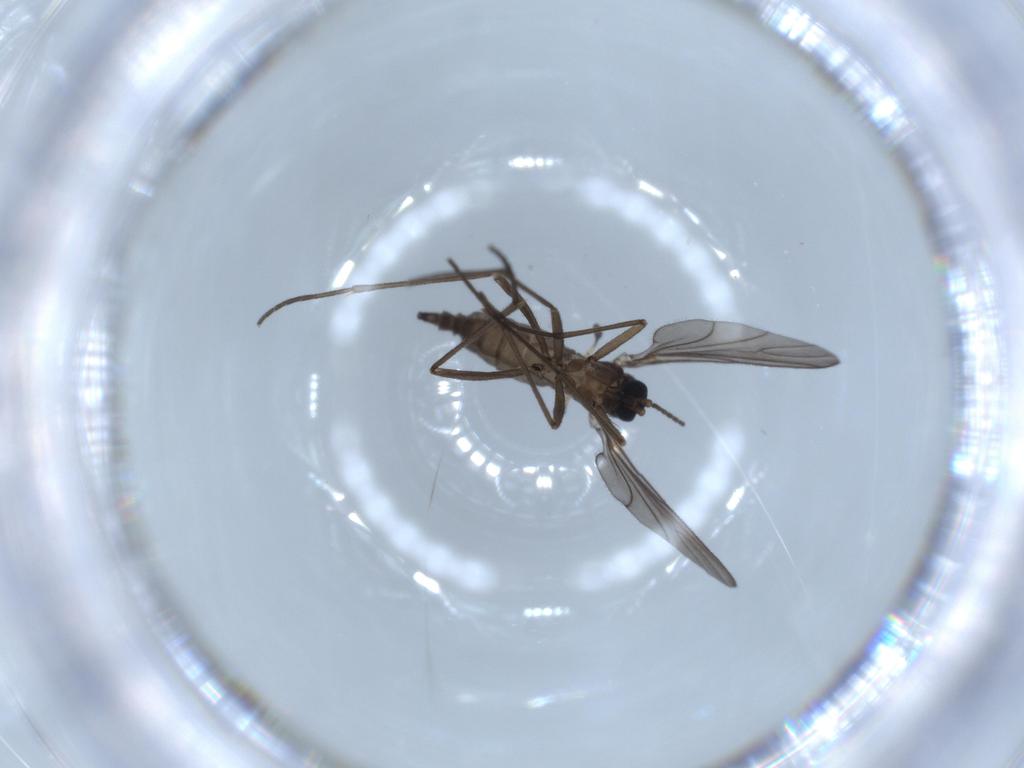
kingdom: Animalia
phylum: Arthropoda
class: Insecta
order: Diptera
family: Sciaridae
